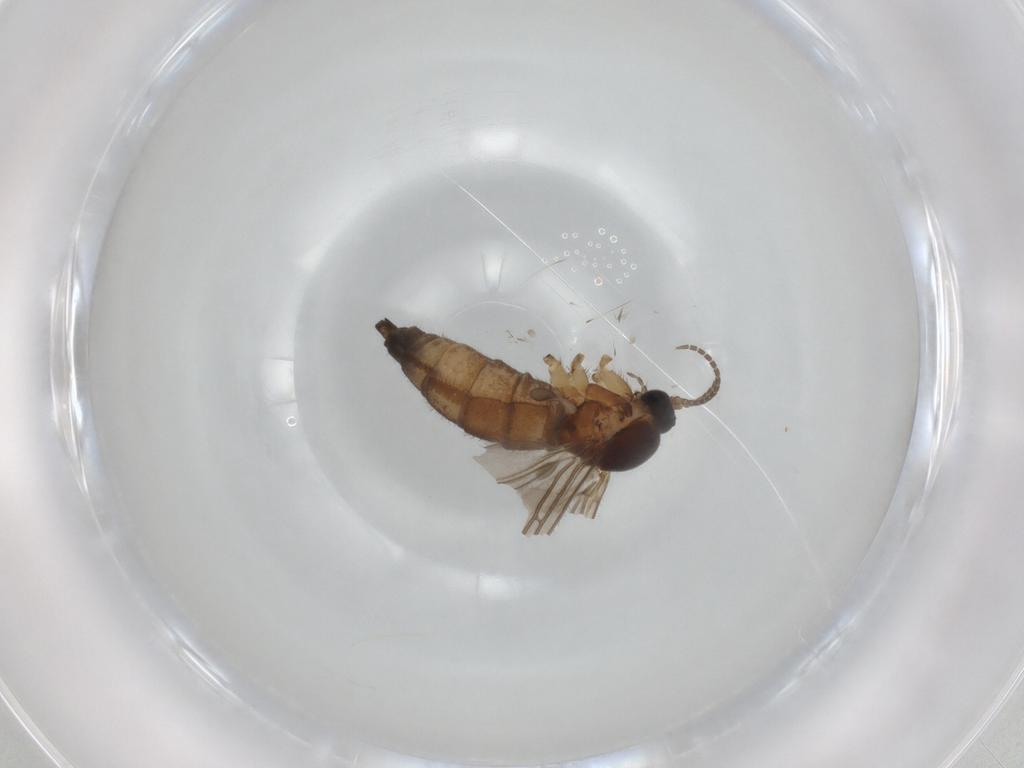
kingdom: Animalia
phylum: Arthropoda
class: Insecta
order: Diptera
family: Sciaridae
